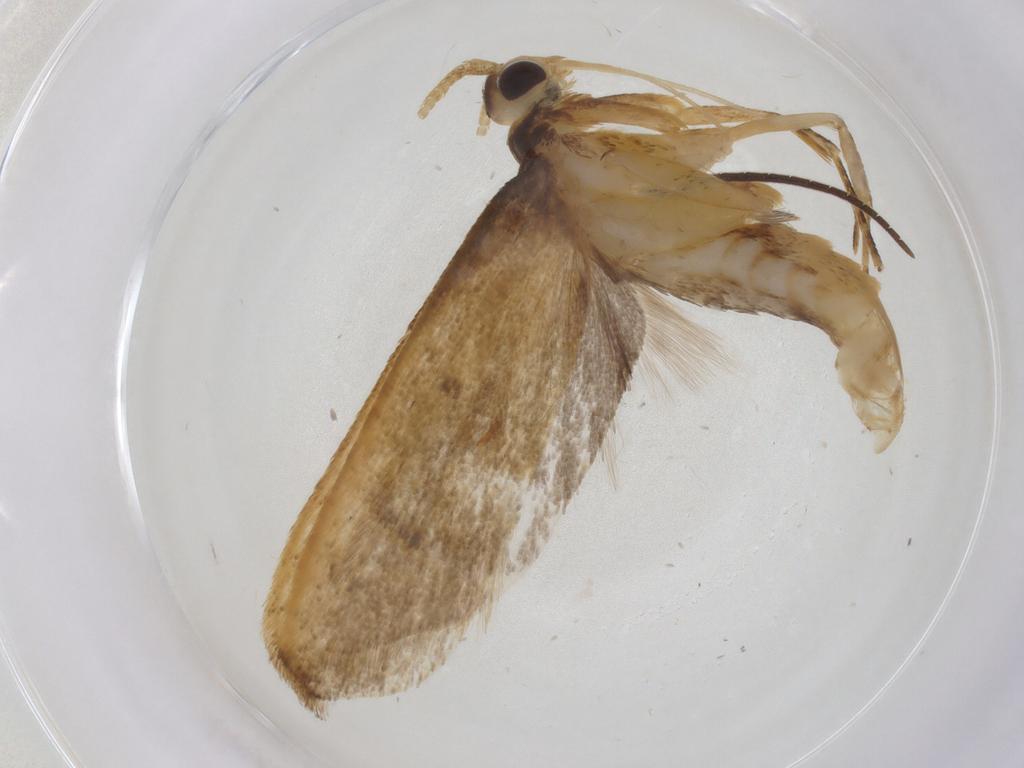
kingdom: Animalia
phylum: Arthropoda
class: Insecta
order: Lepidoptera
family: Lecithoceridae
